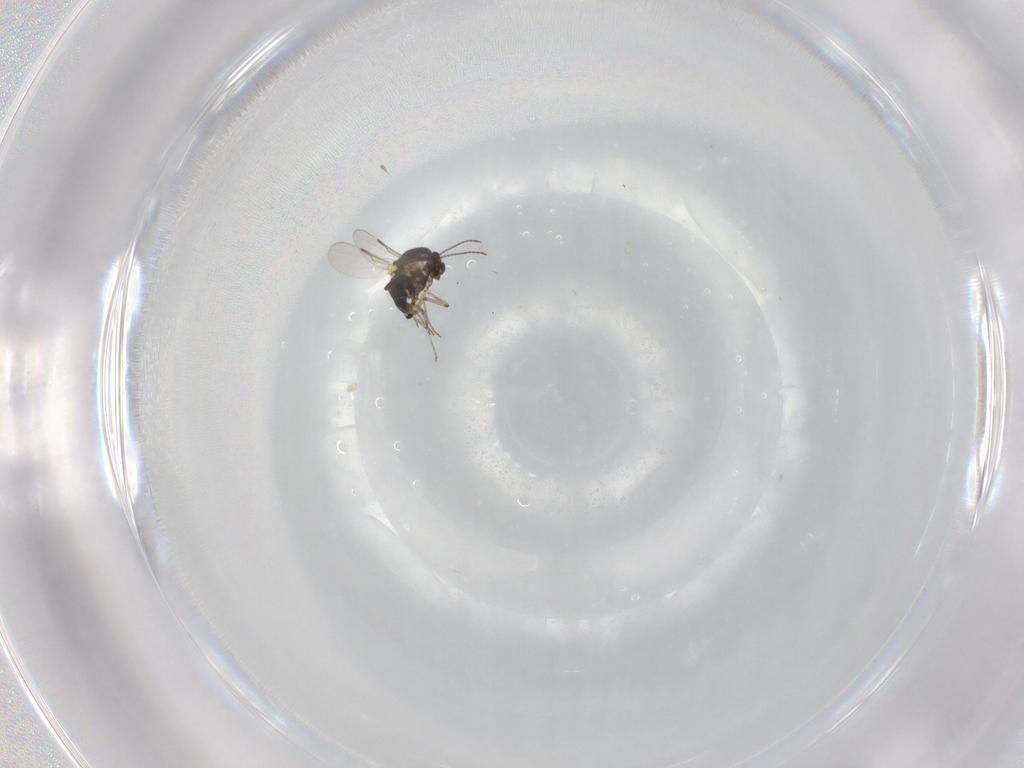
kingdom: Animalia
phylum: Arthropoda
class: Insecta
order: Diptera
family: Ceratopogonidae
